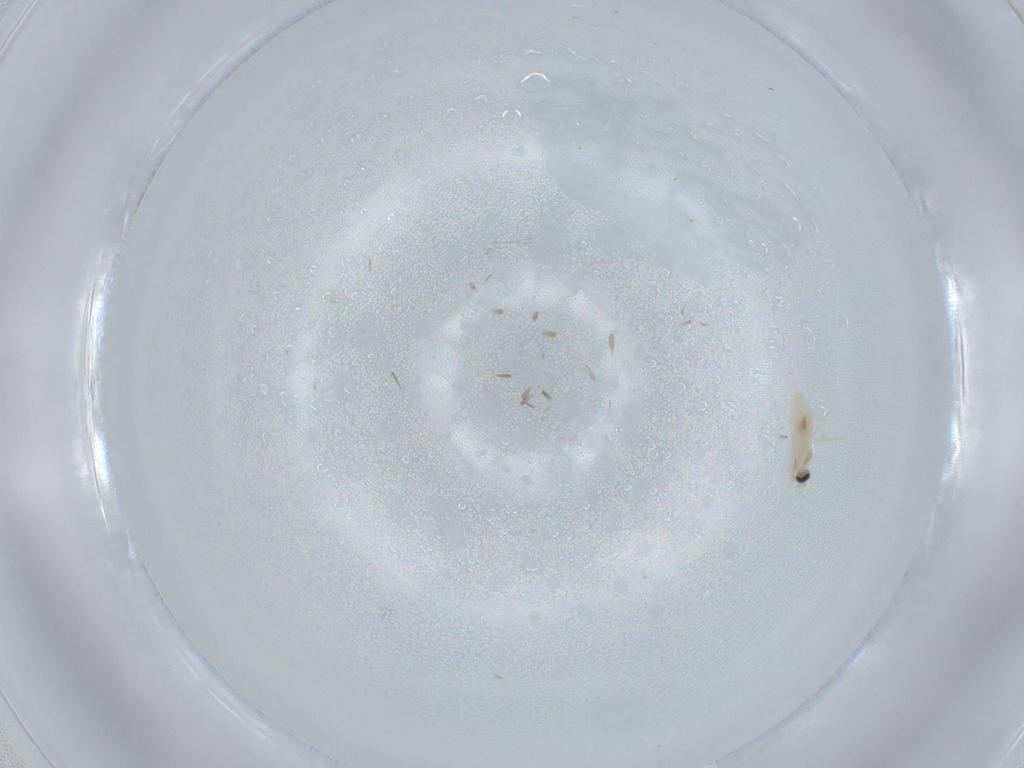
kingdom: Animalia
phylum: Arthropoda
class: Insecta
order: Diptera
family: Cecidomyiidae
